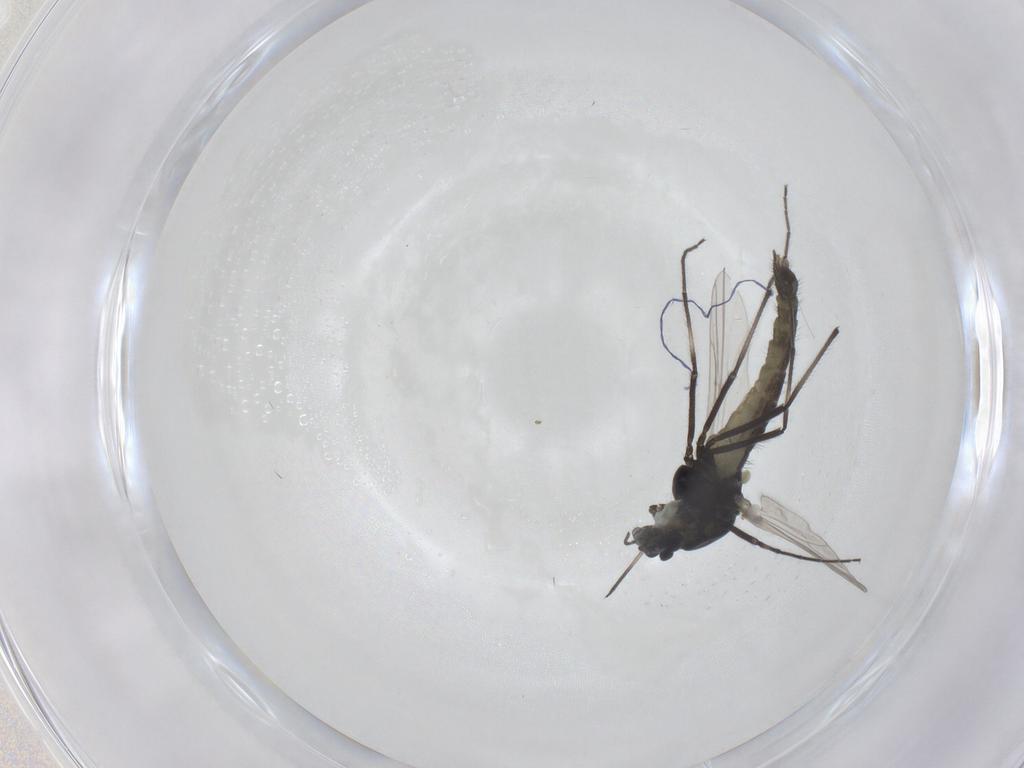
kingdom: Animalia
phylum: Arthropoda
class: Insecta
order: Diptera
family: Chironomidae
